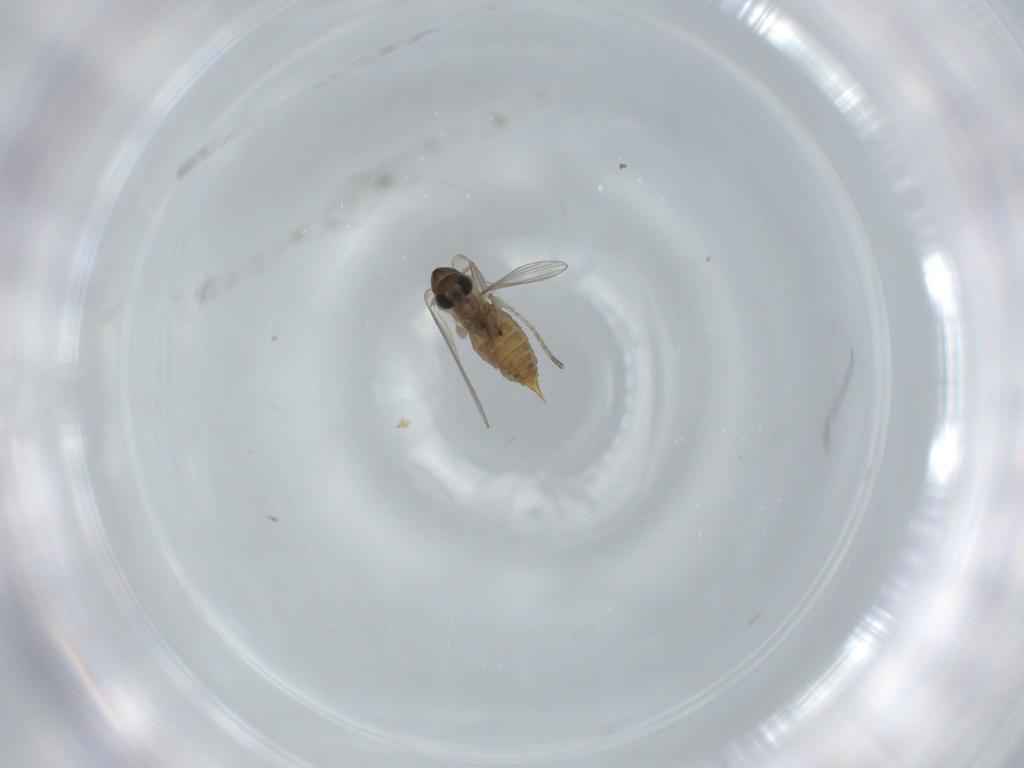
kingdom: Animalia
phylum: Arthropoda
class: Insecta
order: Diptera
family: Psychodidae
